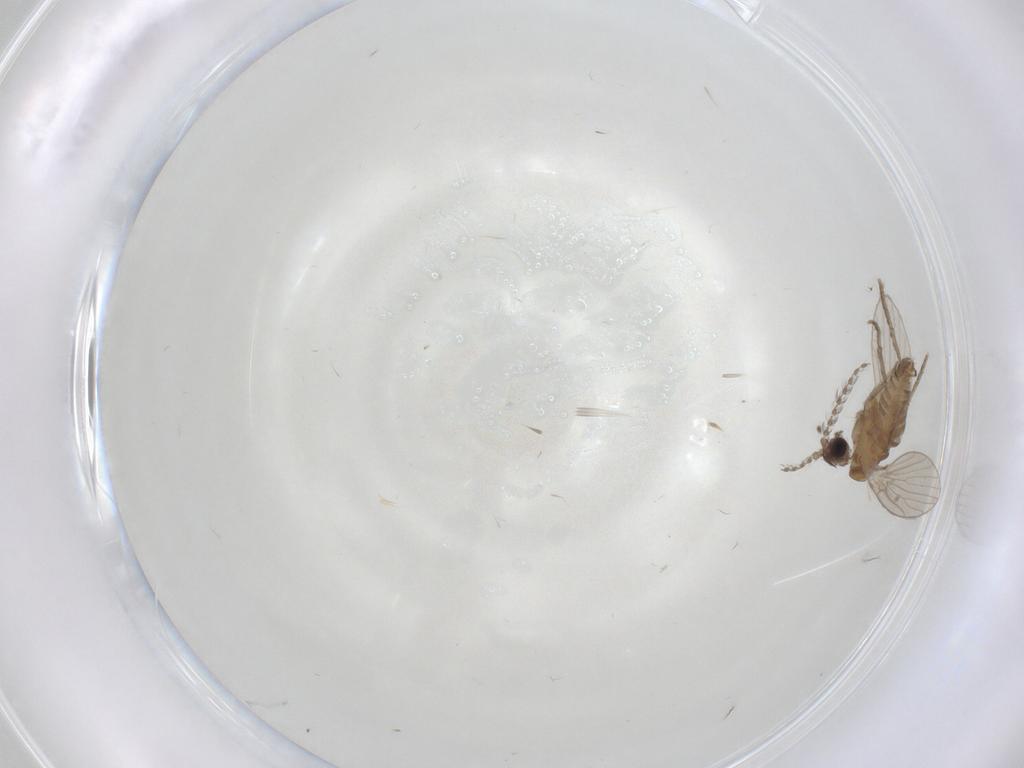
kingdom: Animalia
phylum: Arthropoda
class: Insecta
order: Diptera
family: Psychodidae
